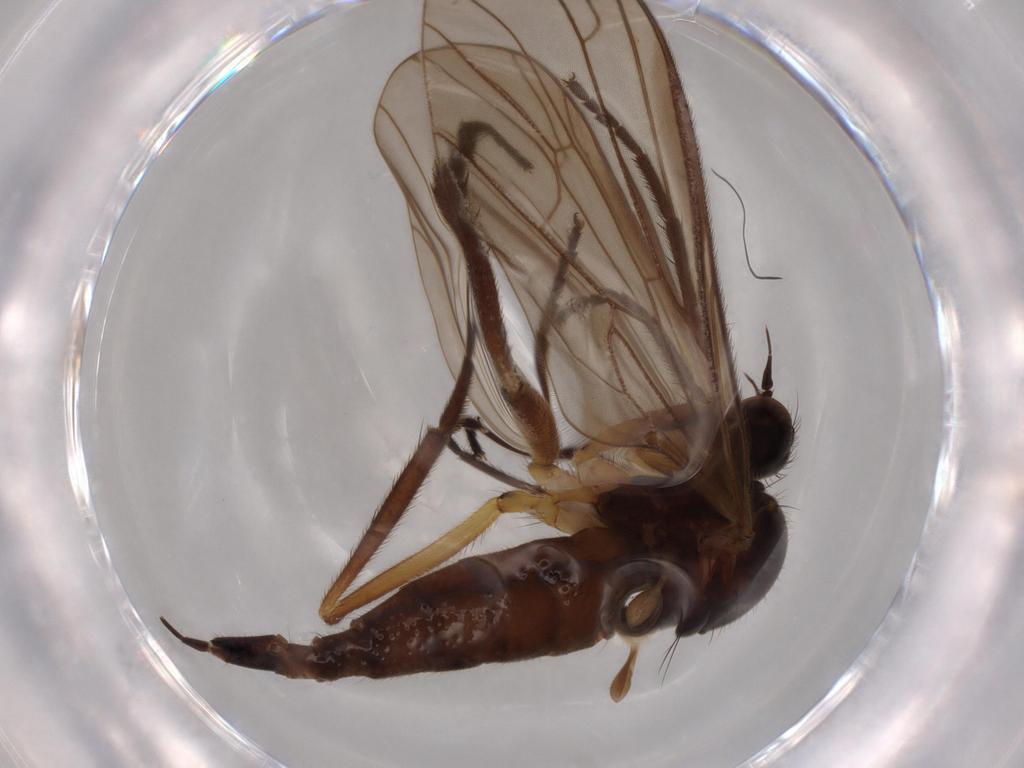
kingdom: Animalia
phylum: Arthropoda
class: Insecta
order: Diptera
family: Empididae
